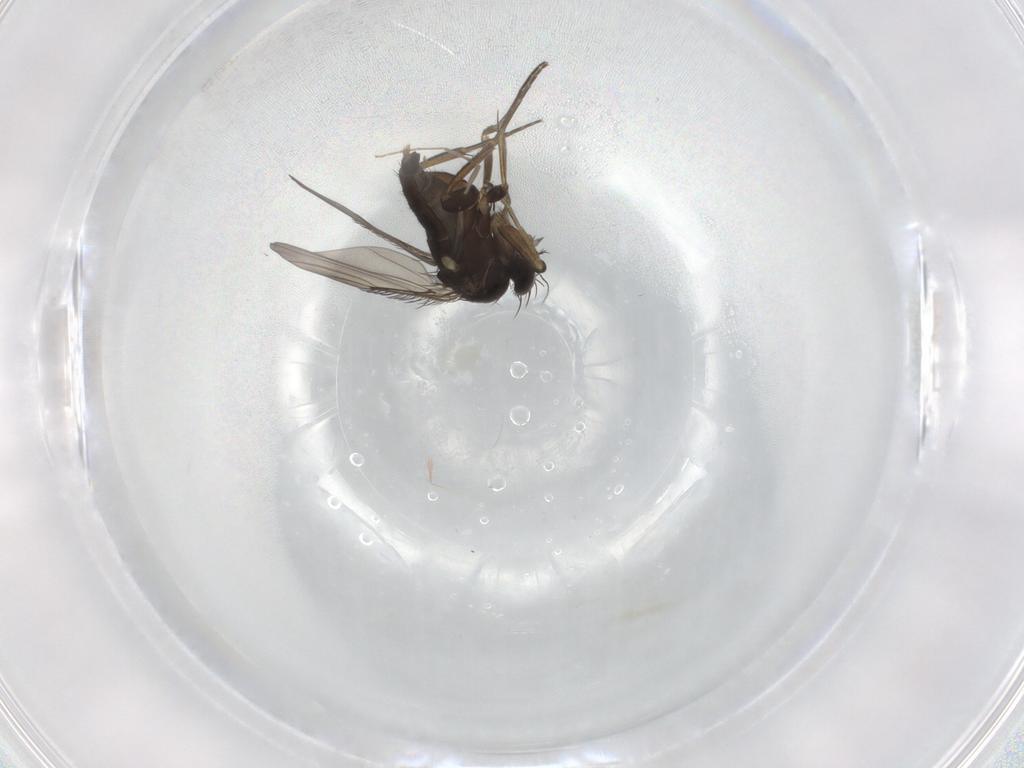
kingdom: Animalia
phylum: Arthropoda
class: Insecta
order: Diptera
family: Phoridae
